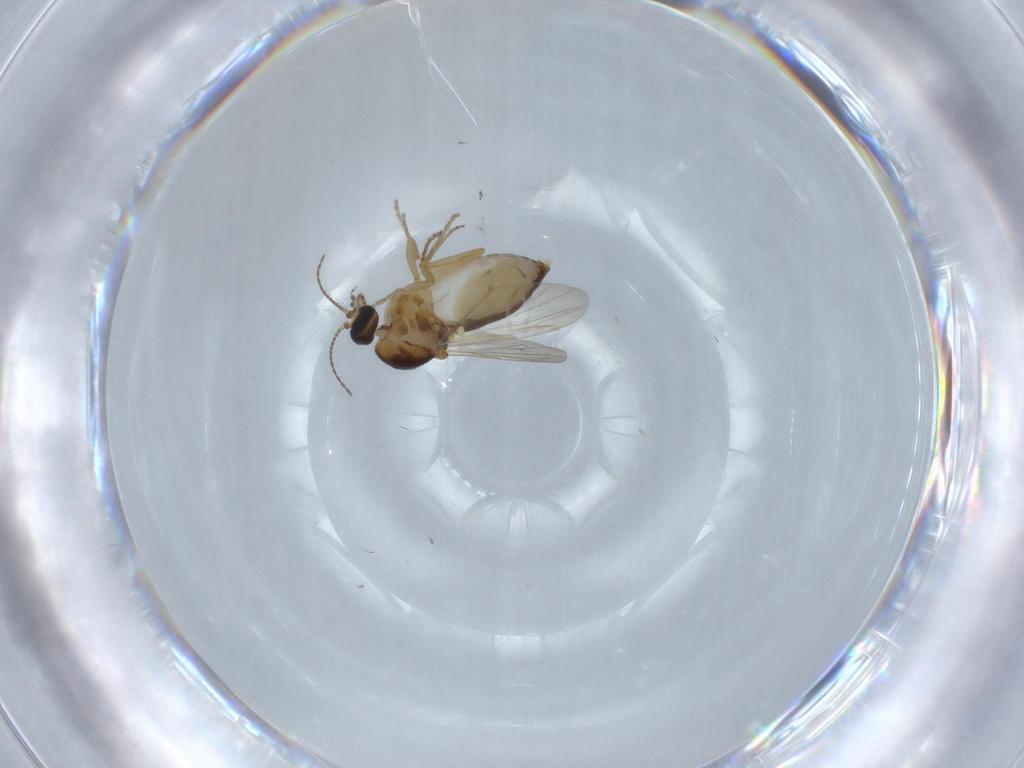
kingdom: Animalia
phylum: Arthropoda
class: Insecta
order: Diptera
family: Ceratopogonidae
